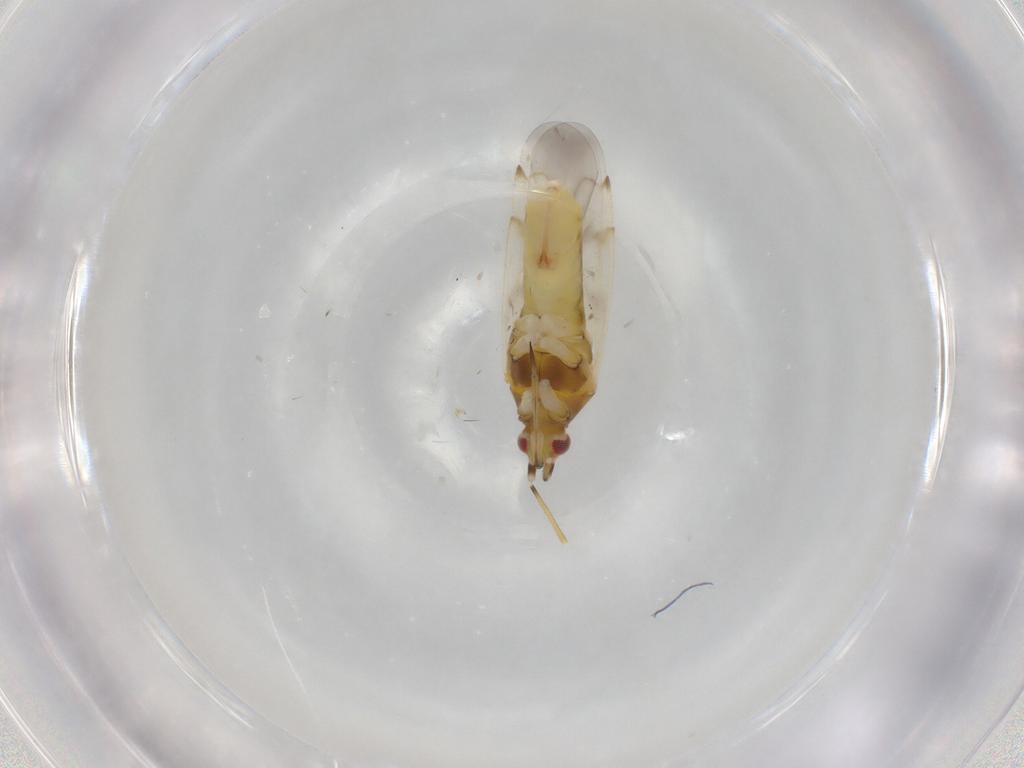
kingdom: Animalia
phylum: Arthropoda
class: Insecta
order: Hemiptera
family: Miridae
